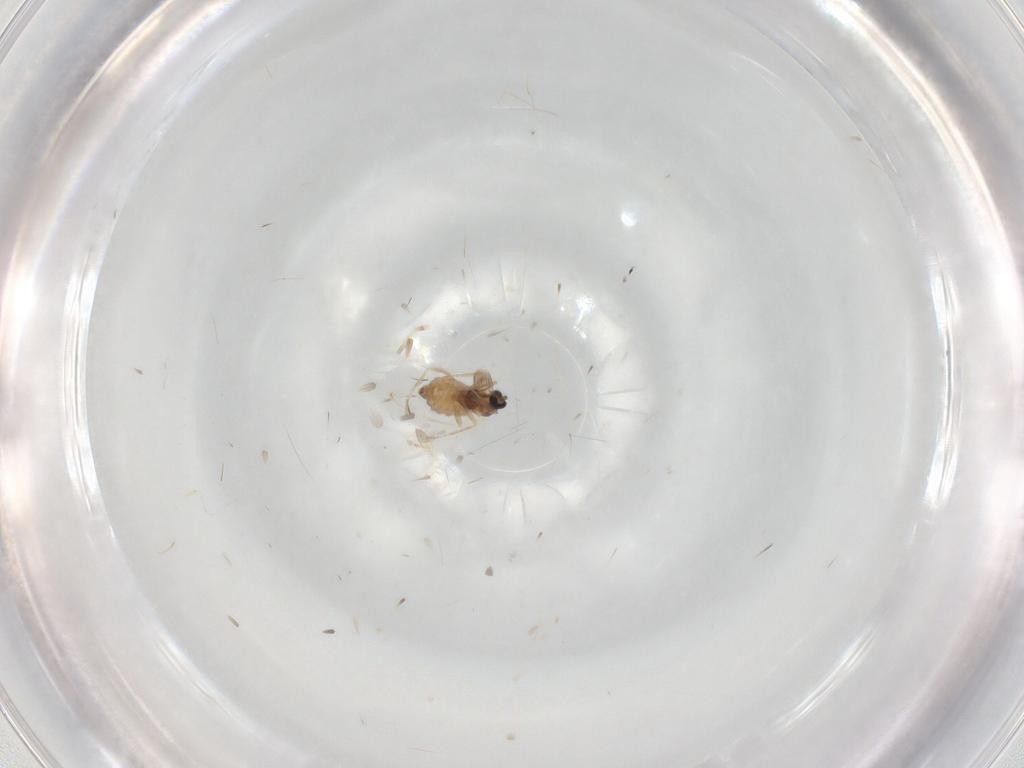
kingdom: Animalia
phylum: Arthropoda
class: Insecta
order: Diptera
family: Cecidomyiidae
